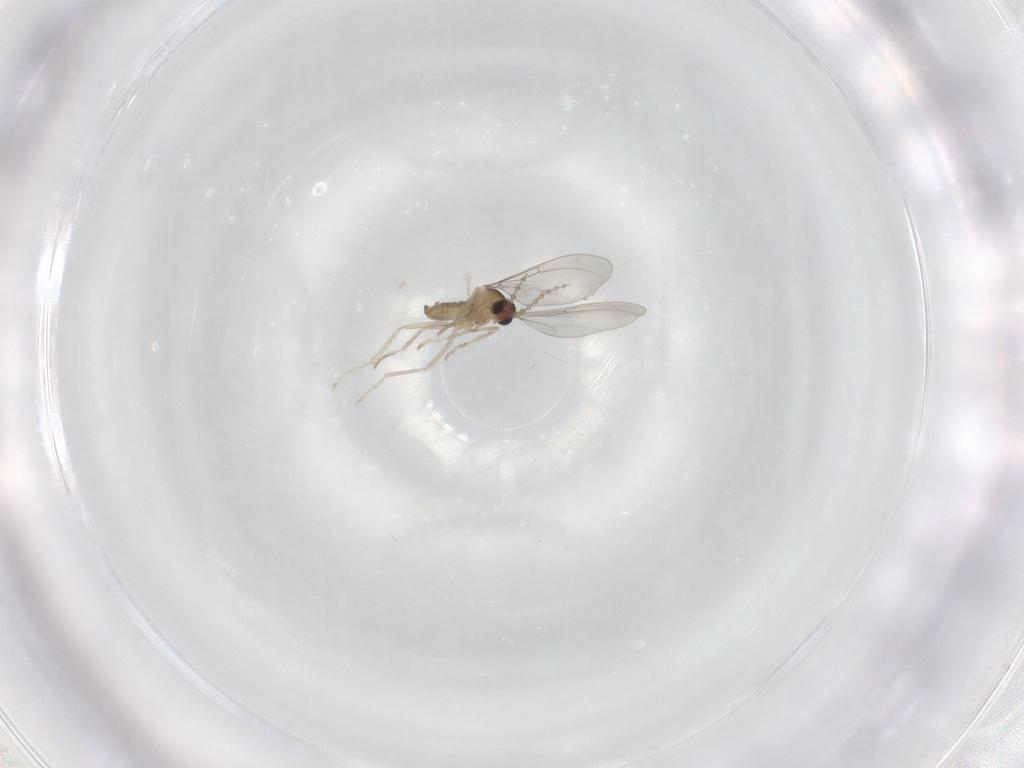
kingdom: Animalia
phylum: Arthropoda
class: Insecta
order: Diptera
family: Cecidomyiidae
